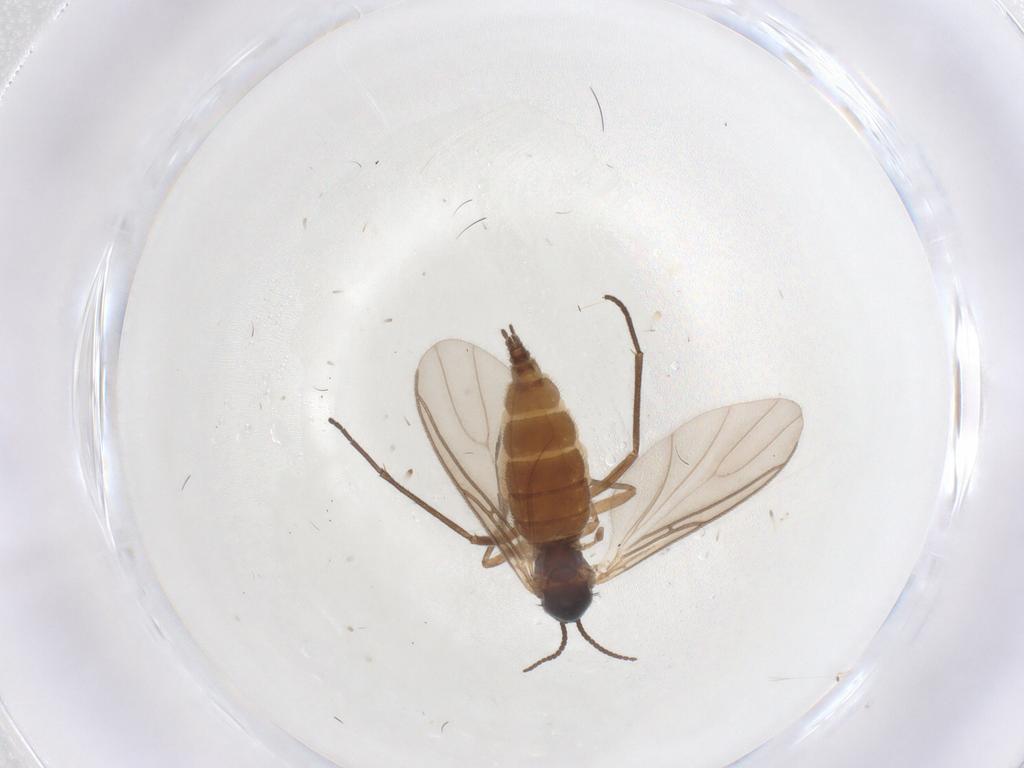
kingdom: Animalia
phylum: Arthropoda
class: Insecta
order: Diptera
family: Sciaridae
